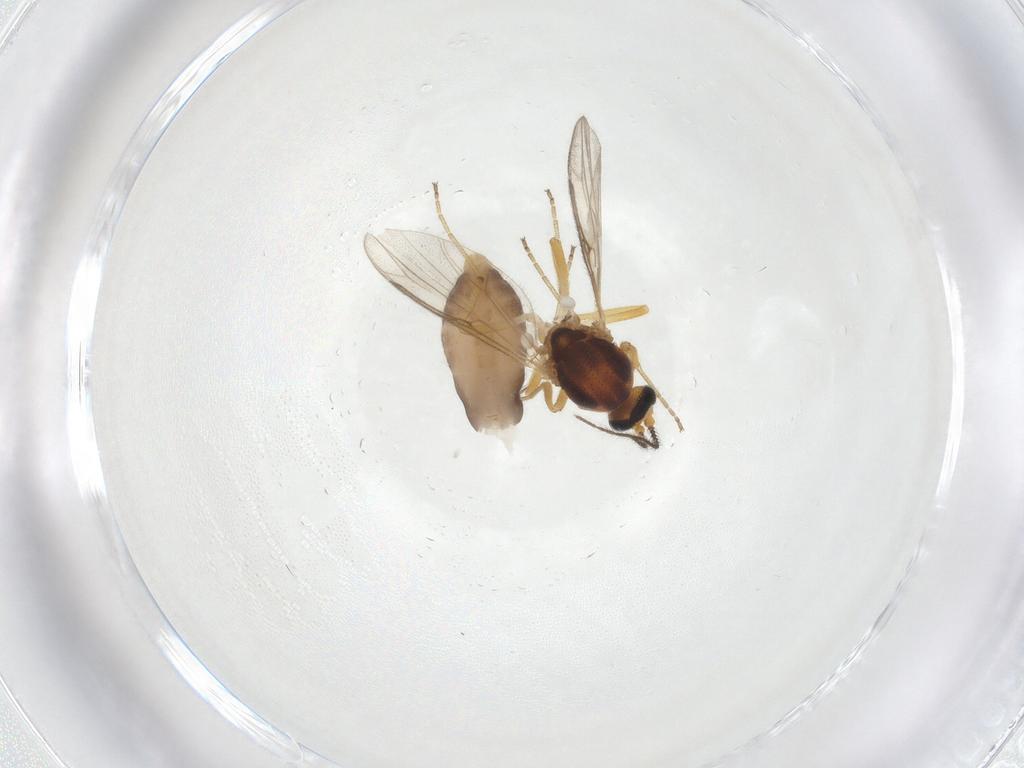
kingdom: Animalia
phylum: Arthropoda
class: Insecta
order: Diptera
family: Ceratopogonidae
